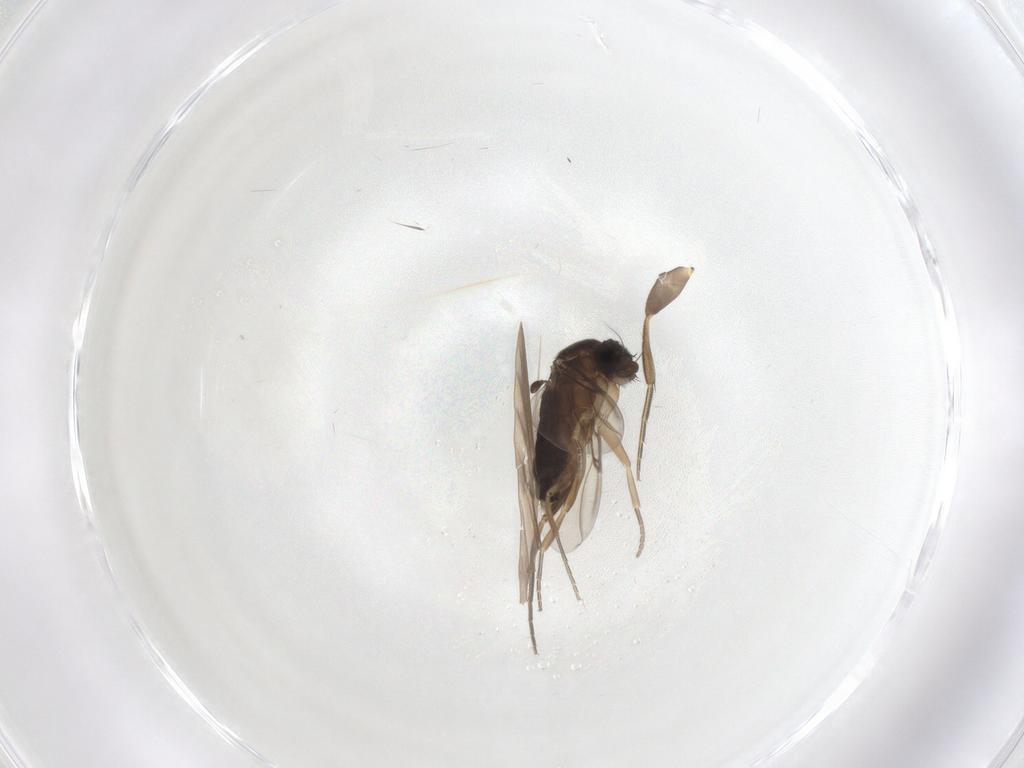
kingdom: Animalia
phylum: Arthropoda
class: Insecta
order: Diptera
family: Phoridae
